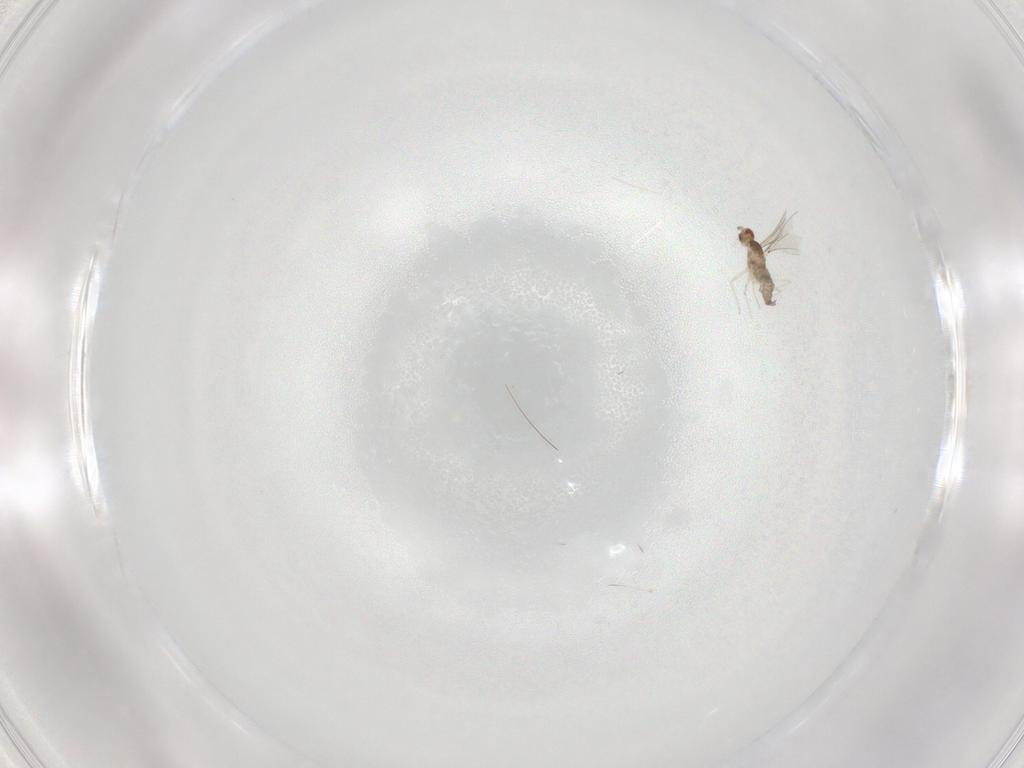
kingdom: Animalia
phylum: Arthropoda
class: Insecta
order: Diptera
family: Cecidomyiidae
